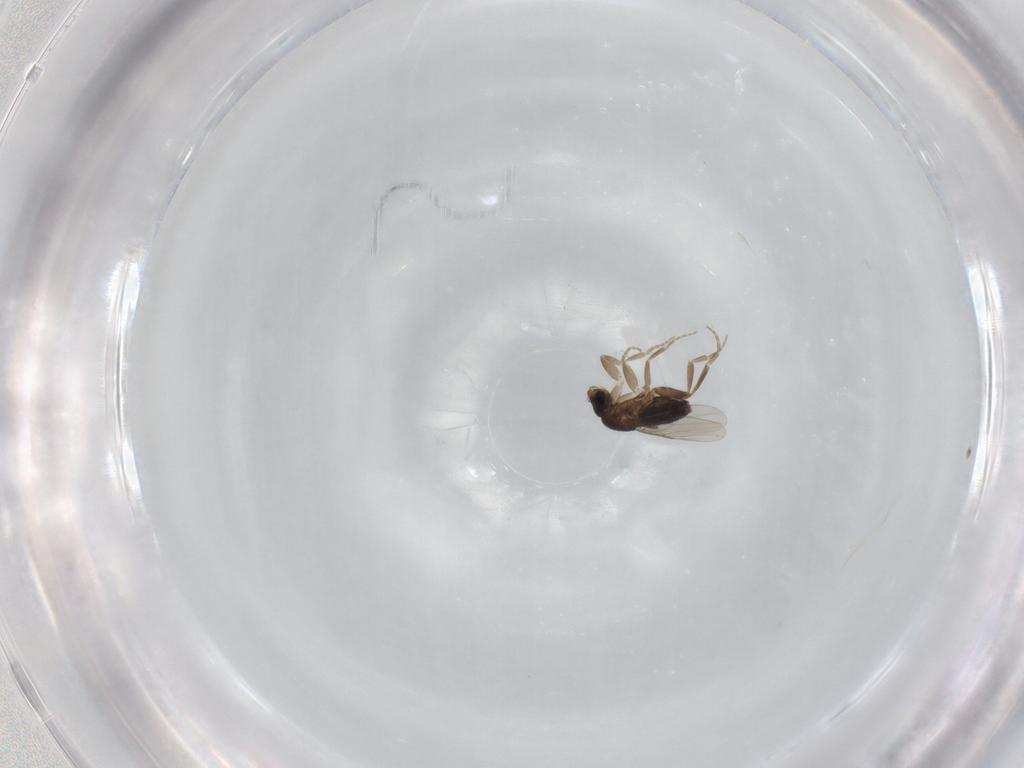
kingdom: Animalia
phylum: Arthropoda
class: Insecta
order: Diptera
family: Phoridae
